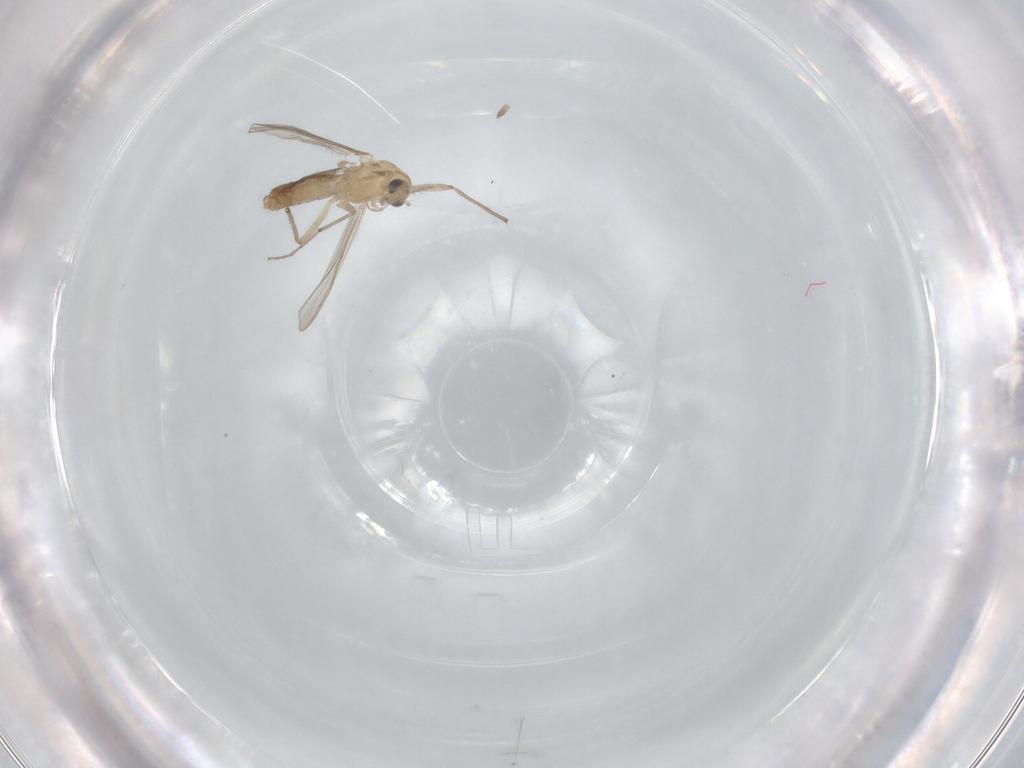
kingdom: Animalia
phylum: Arthropoda
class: Insecta
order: Diptera
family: Chironomidae
